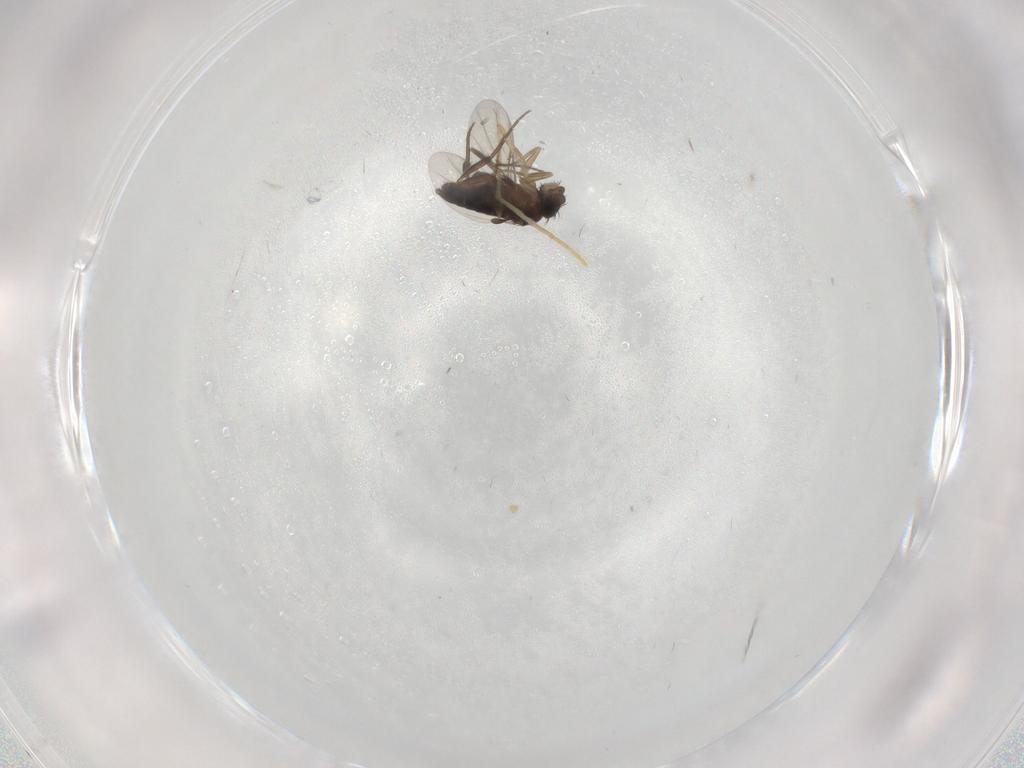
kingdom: Animalia
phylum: Arthropoda
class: Insecta
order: Diptera
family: Phoridae
